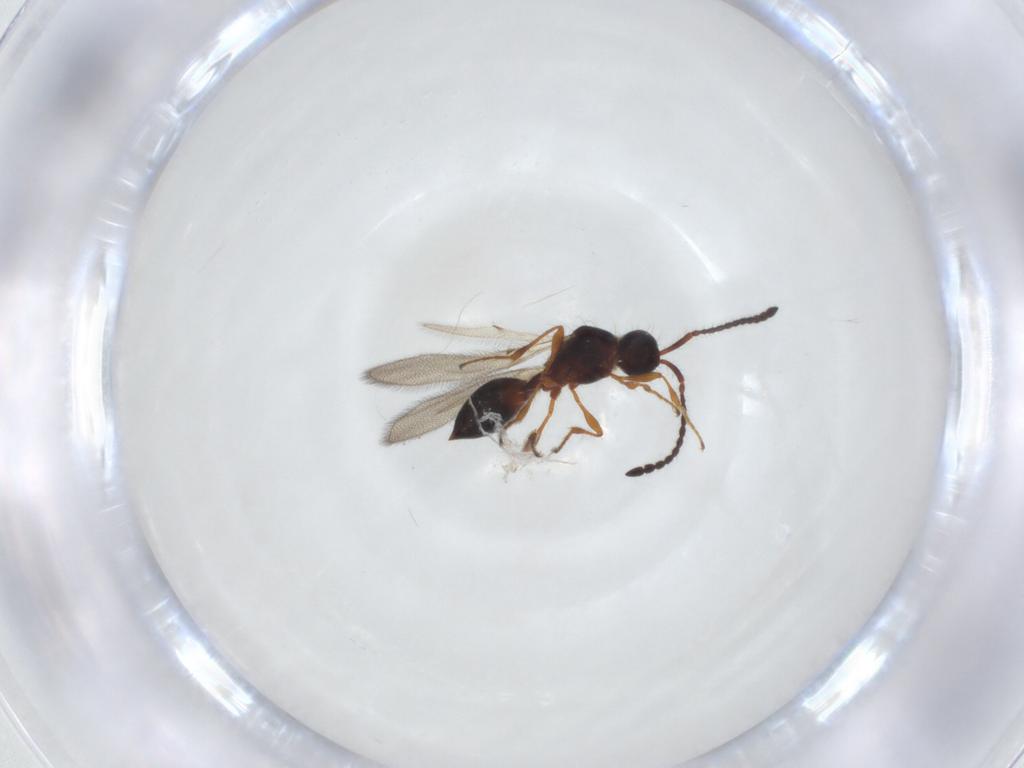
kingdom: Animalia
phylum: Arthropoda
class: Insecta
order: Hymenoptera
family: Diapriidae
